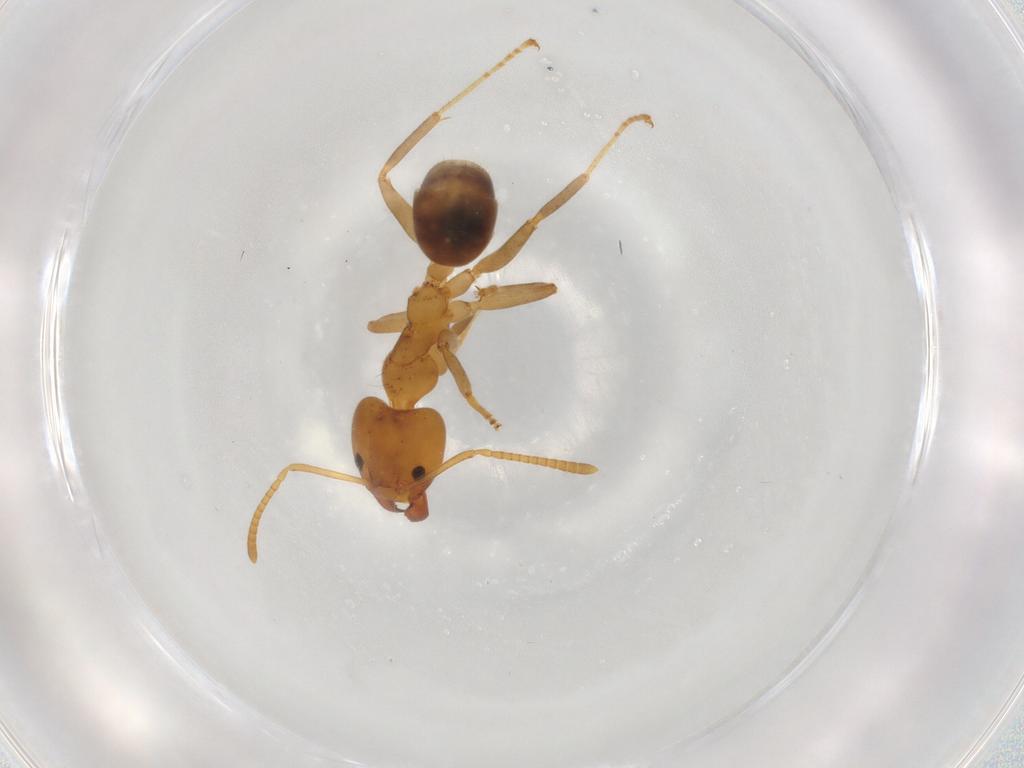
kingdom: Animalia
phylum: Arthropoda
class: Insecta
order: Hymenoptera
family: Formicidae
